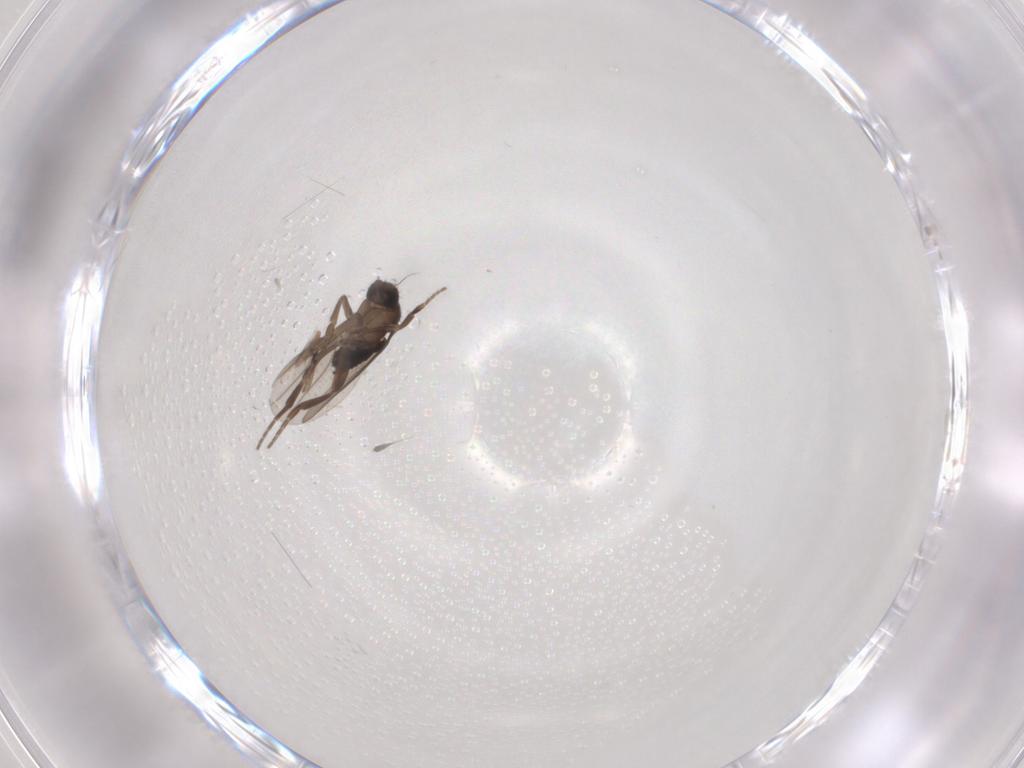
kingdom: Animalia
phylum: Arthropoda
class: Insecta
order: Diptera
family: Chironomidae
